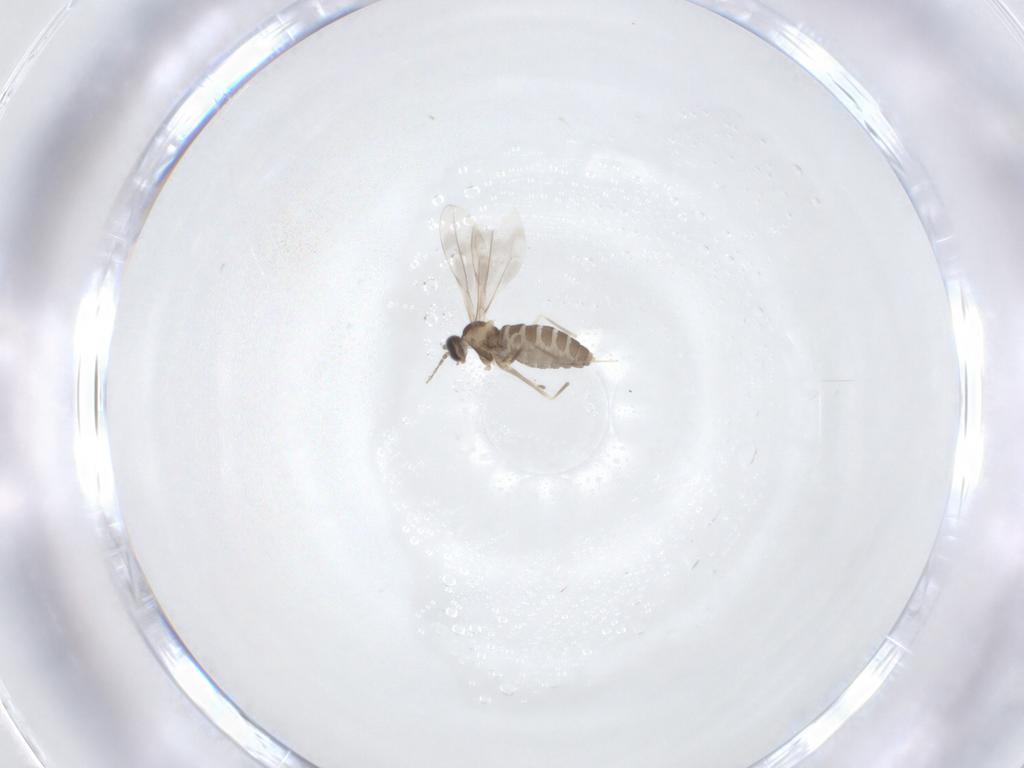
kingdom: Animalia
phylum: Arthropoda
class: Insecta
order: Diptera
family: Cecidomyiidae
